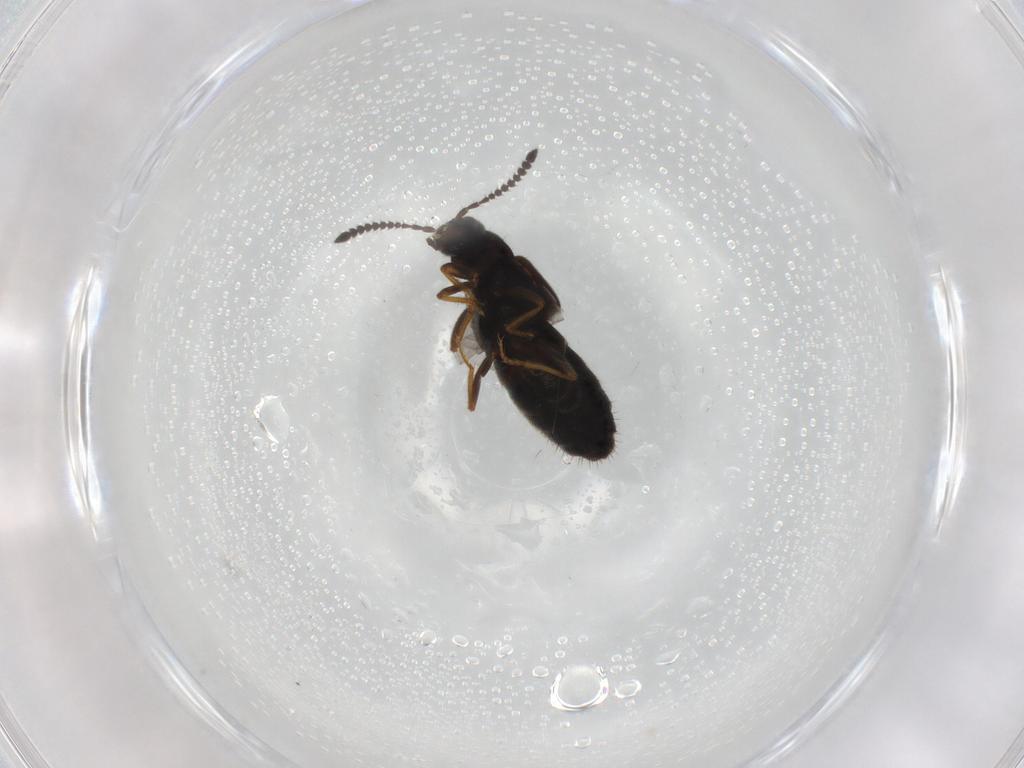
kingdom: Animalia
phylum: Arthropoda
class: Insecta
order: Coleoptera
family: Staphylinidae
